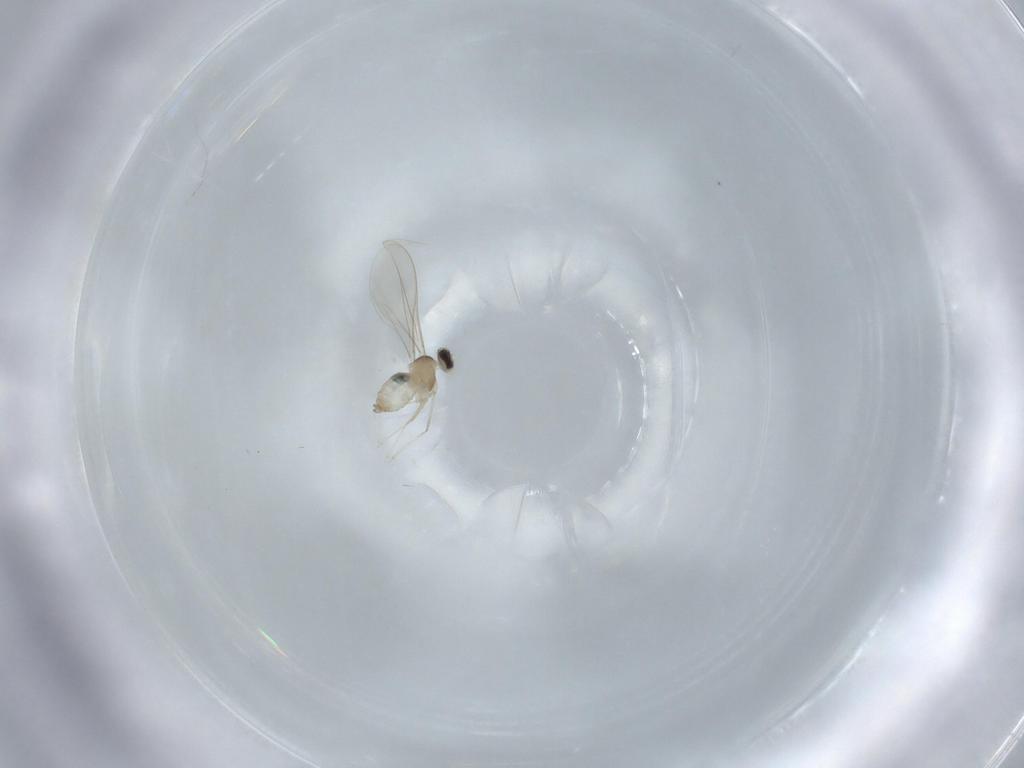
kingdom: Animalia
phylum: Arthropoda
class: Insecta
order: Diptera
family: Cecidomyiidae
